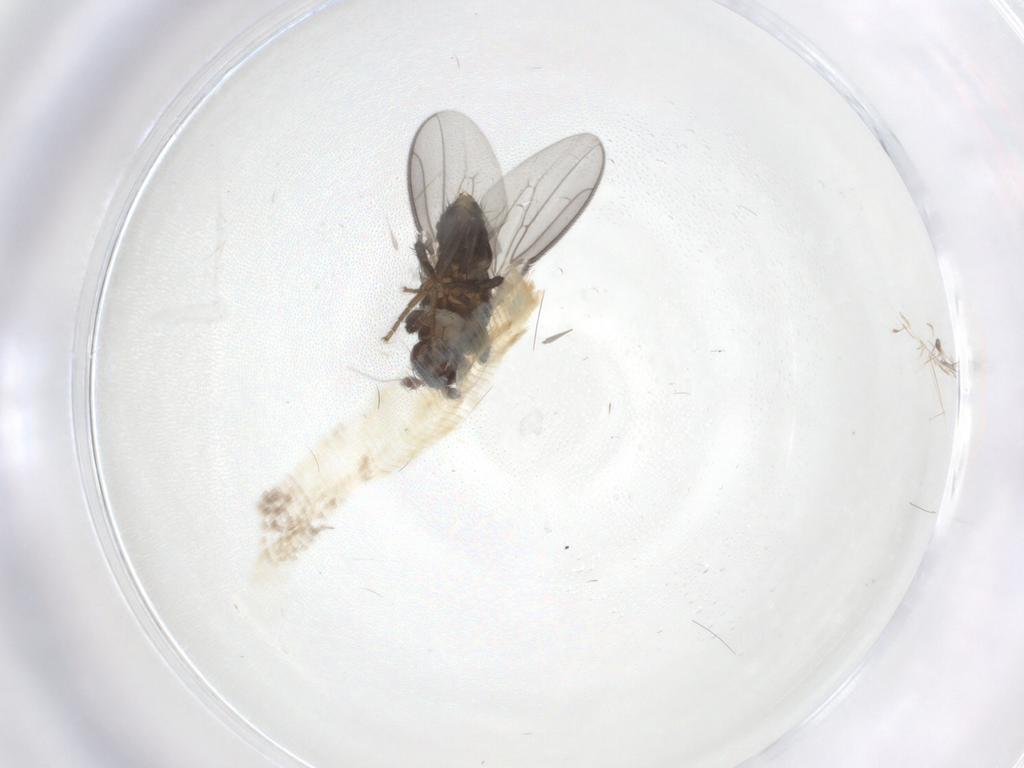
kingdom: Animalia
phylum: Arthropoda
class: Insecta
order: Diptera
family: Sphaeroceridae
